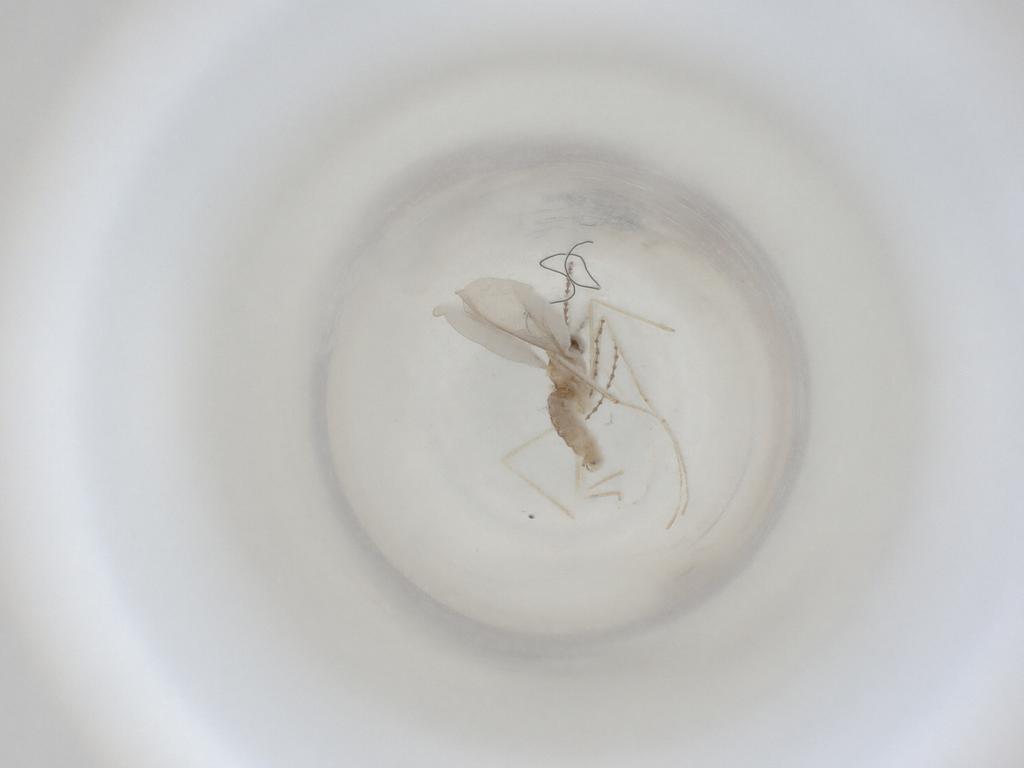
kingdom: Animalia
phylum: Arthropoda
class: Insecta
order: Diptera
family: Cecidomyiidae
